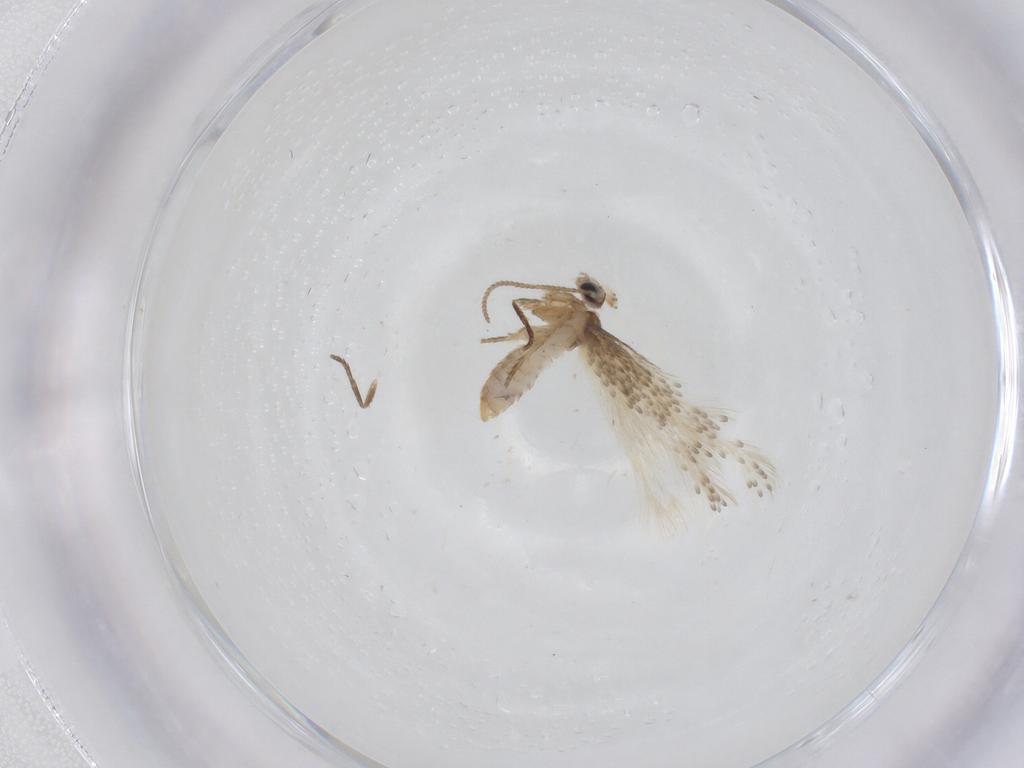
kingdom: Animalia
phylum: Arthropoda
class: Insecta
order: Lepidoptera
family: Nepticulidae
